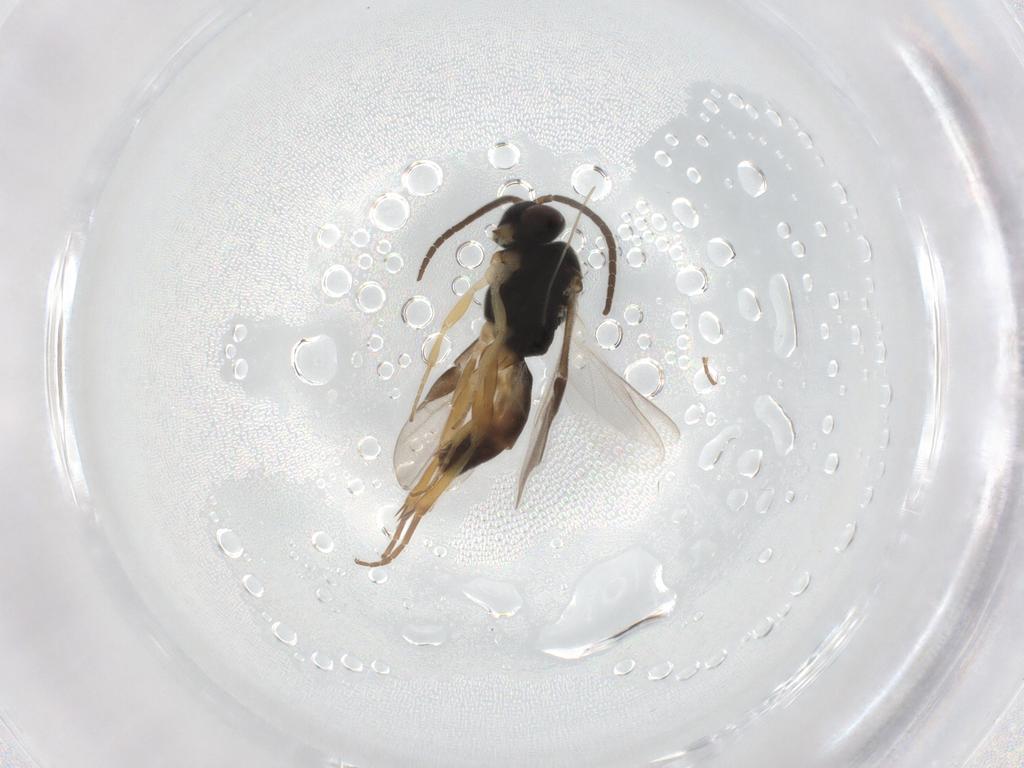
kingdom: Animalia
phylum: Arthropoda
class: Insecta
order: Hymenoptera
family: Braconidae
